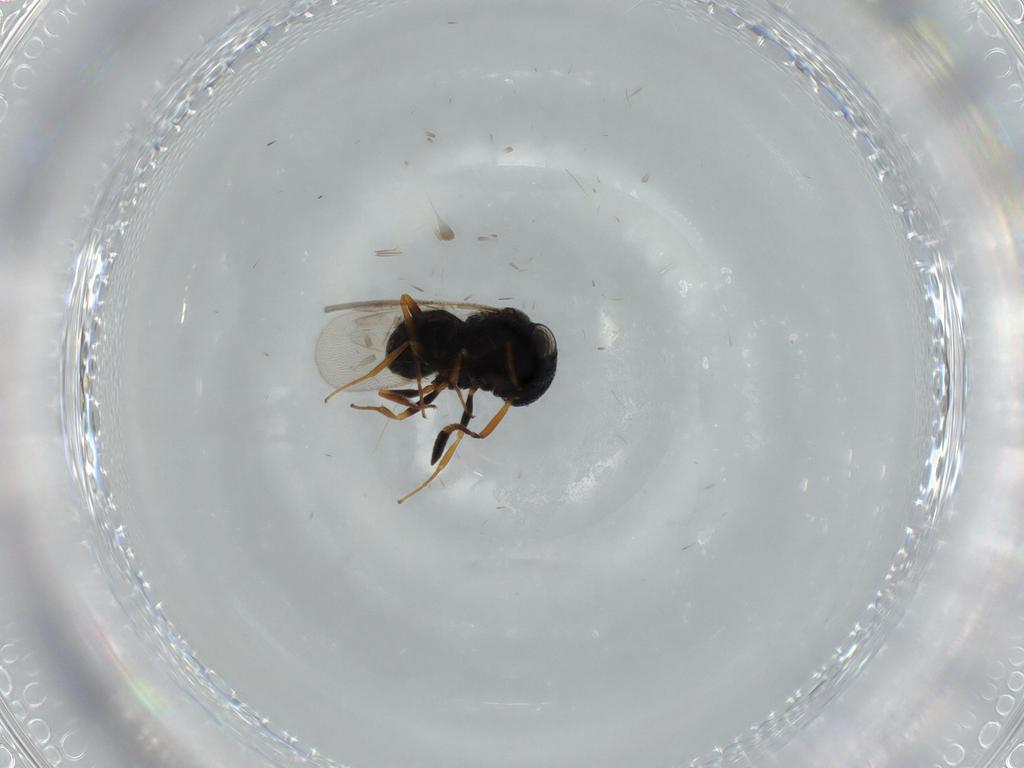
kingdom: Animalia
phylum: Arthropoda
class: Insecta
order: Hymenoptera
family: Scelionidae
